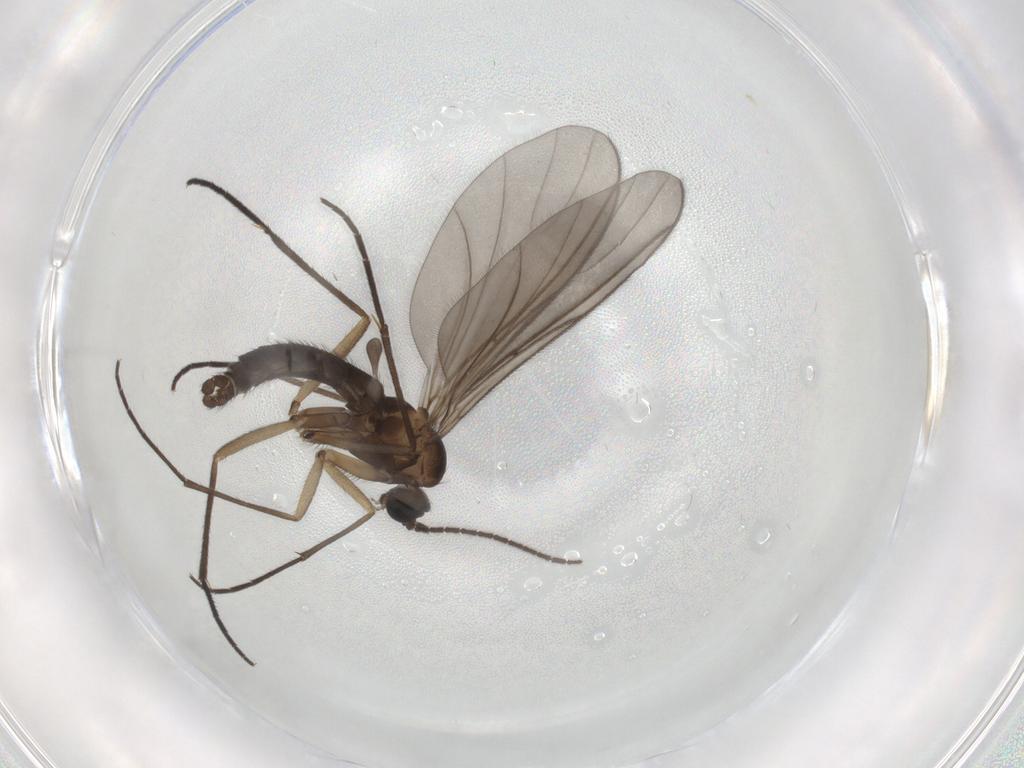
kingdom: Animalia
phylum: Arthropoda
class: Insecta
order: Diptera
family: Sciaridae
